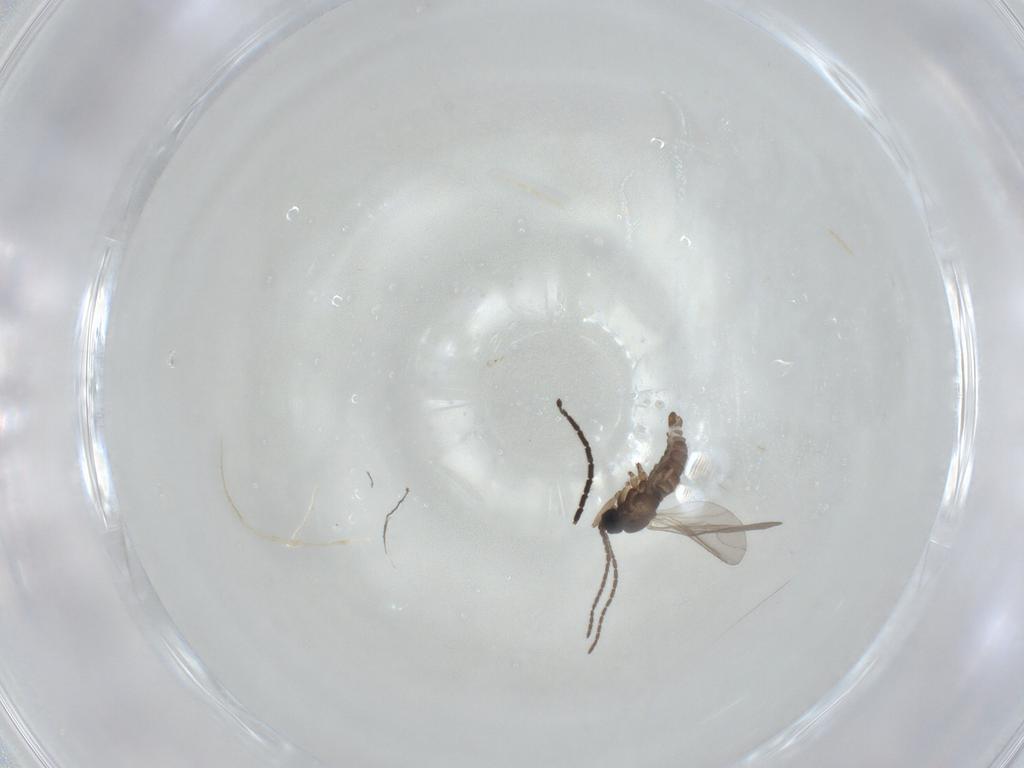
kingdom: Animalia
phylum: Arthropoda
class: Insecta
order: Diptera
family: Sciaridae
